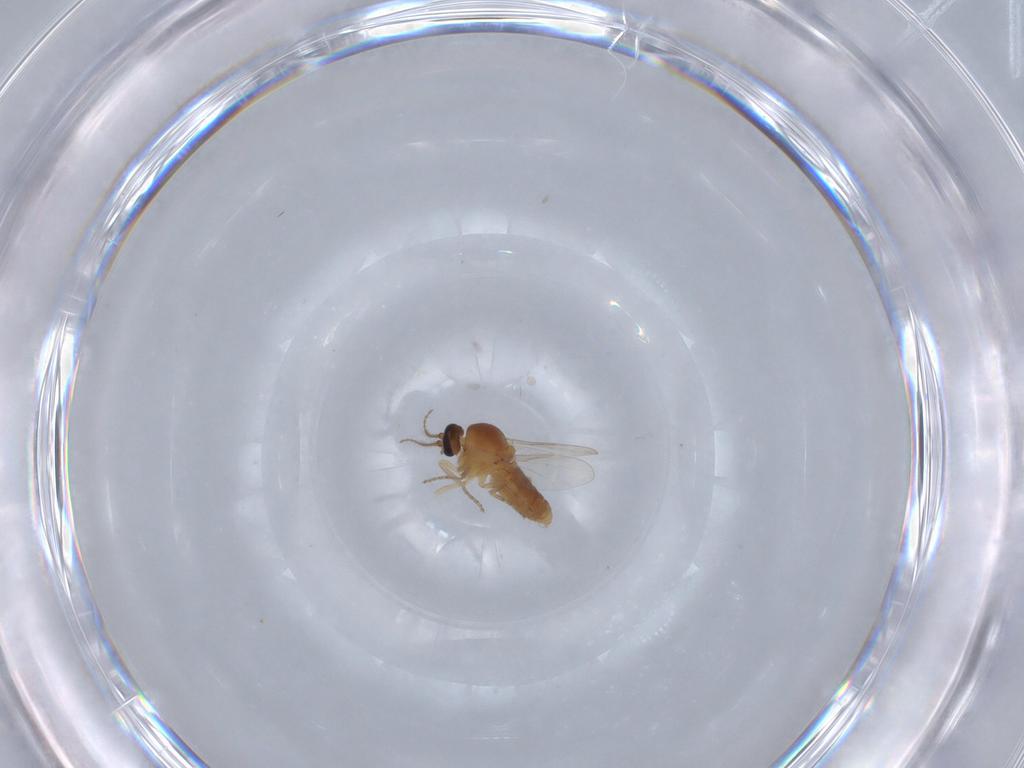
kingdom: Animalia
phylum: Arthropoda
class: Insecta
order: Diptera
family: Ceratopogonidae
